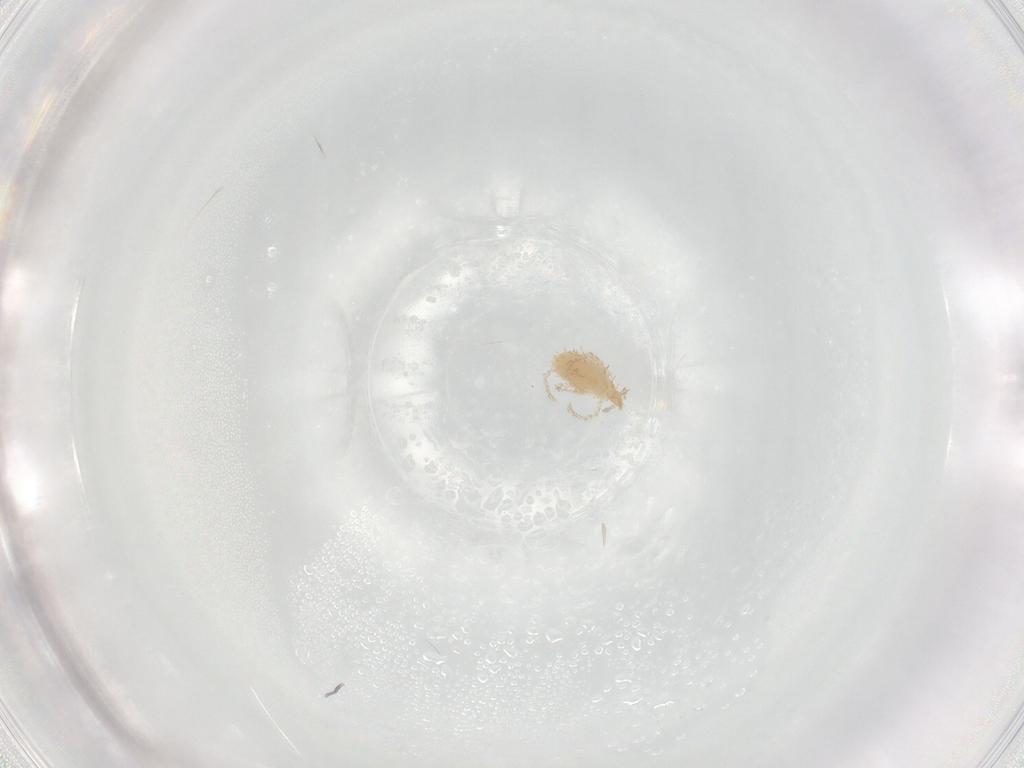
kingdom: Animalia
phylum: Arthropoda
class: Arachnida
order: Trombidiformes
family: Erythraeidae
